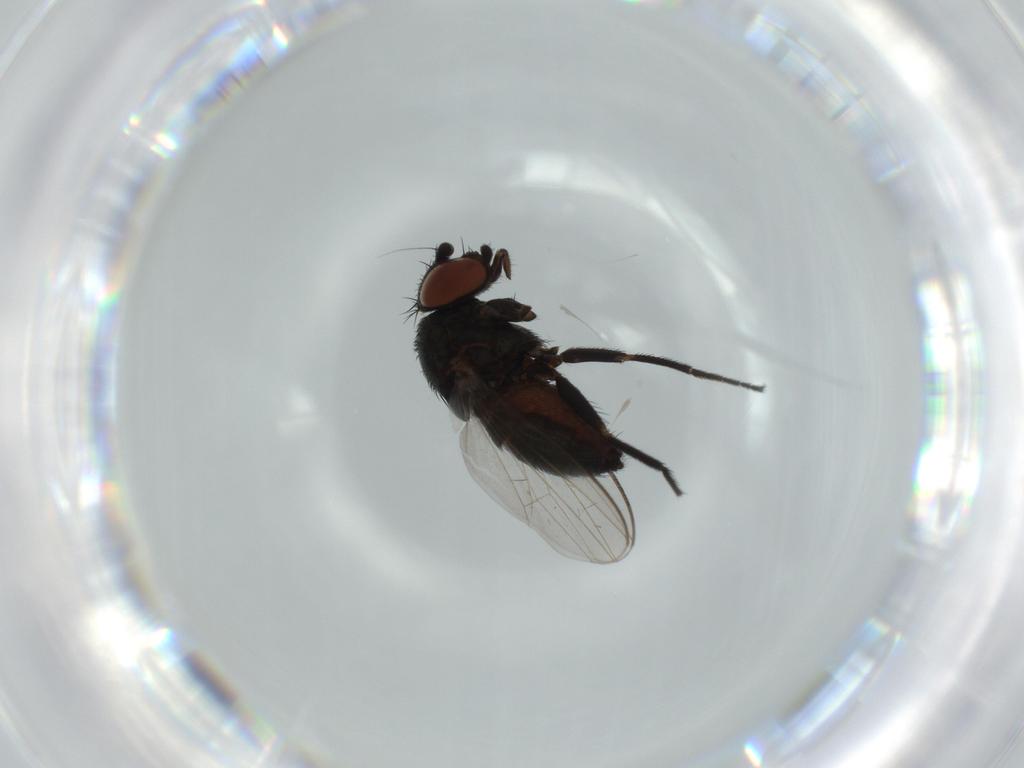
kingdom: Animalia
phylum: Arthropoda
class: Insecta
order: Diptera
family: Milichiidae
